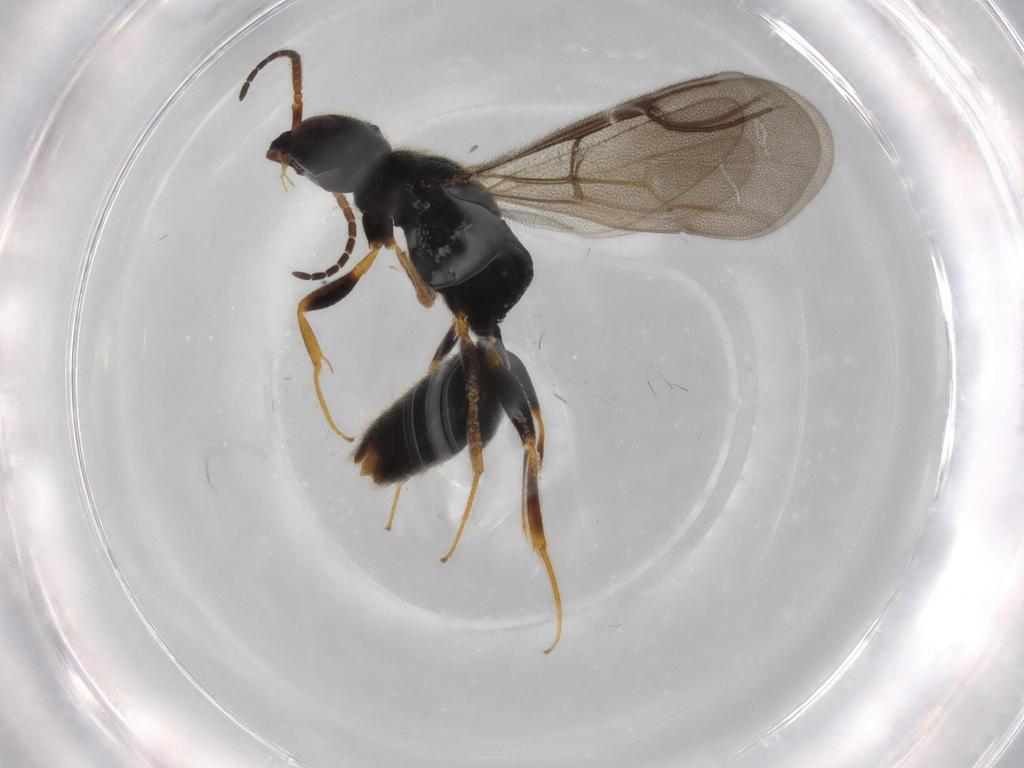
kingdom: Animalia
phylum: Arthropoda
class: Insecta
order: Hymenoptera
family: Bethylidae
